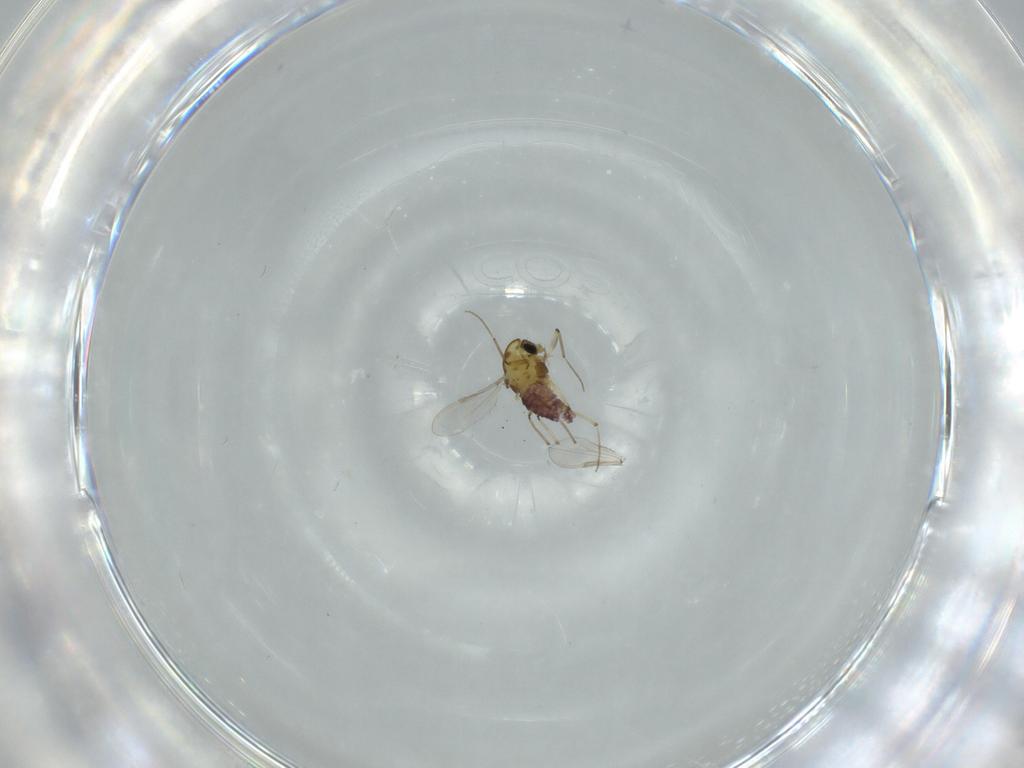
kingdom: Animalia
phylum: Arthropoda
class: Insecta
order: Diptera
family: Chironomidae
